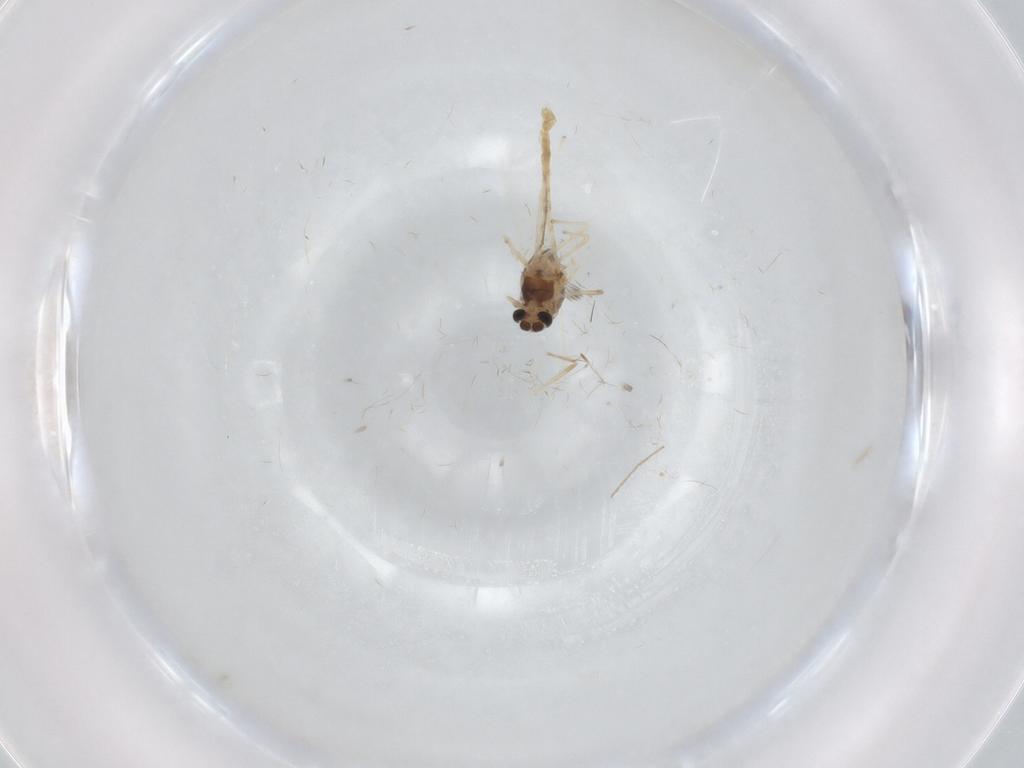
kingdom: Animalia
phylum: Arthropoda
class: Insecta
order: Diptera
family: Chironomidae
